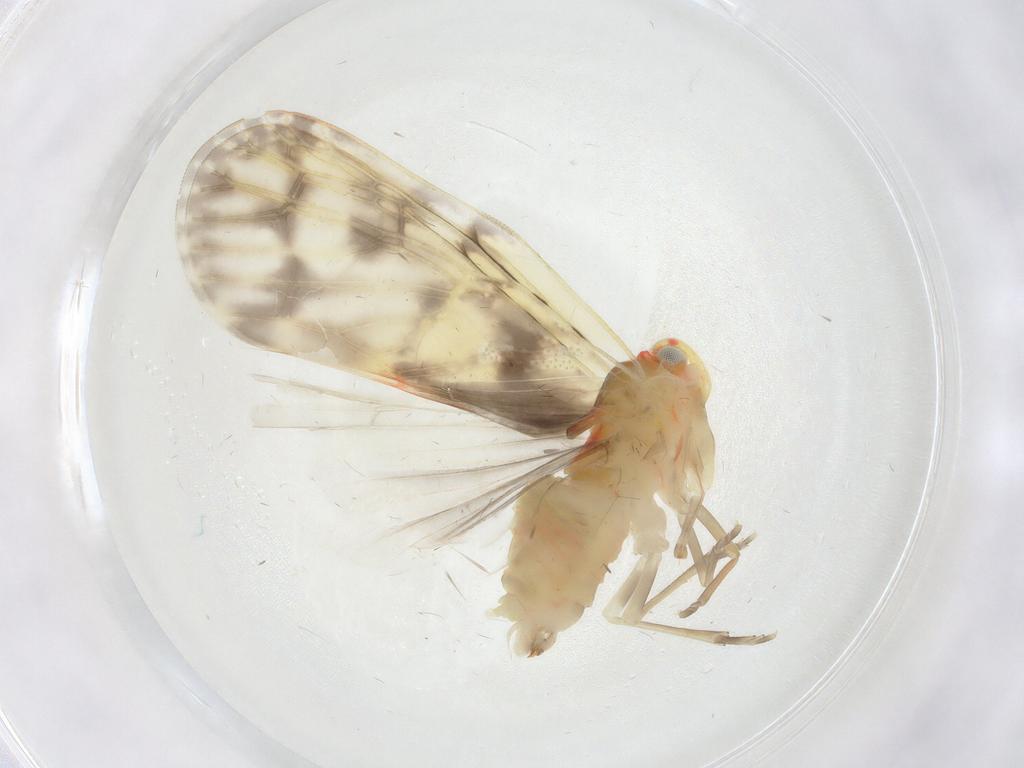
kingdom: Animalia
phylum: Arthropoda
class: Insecta
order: Hemiptera
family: Derbidae
